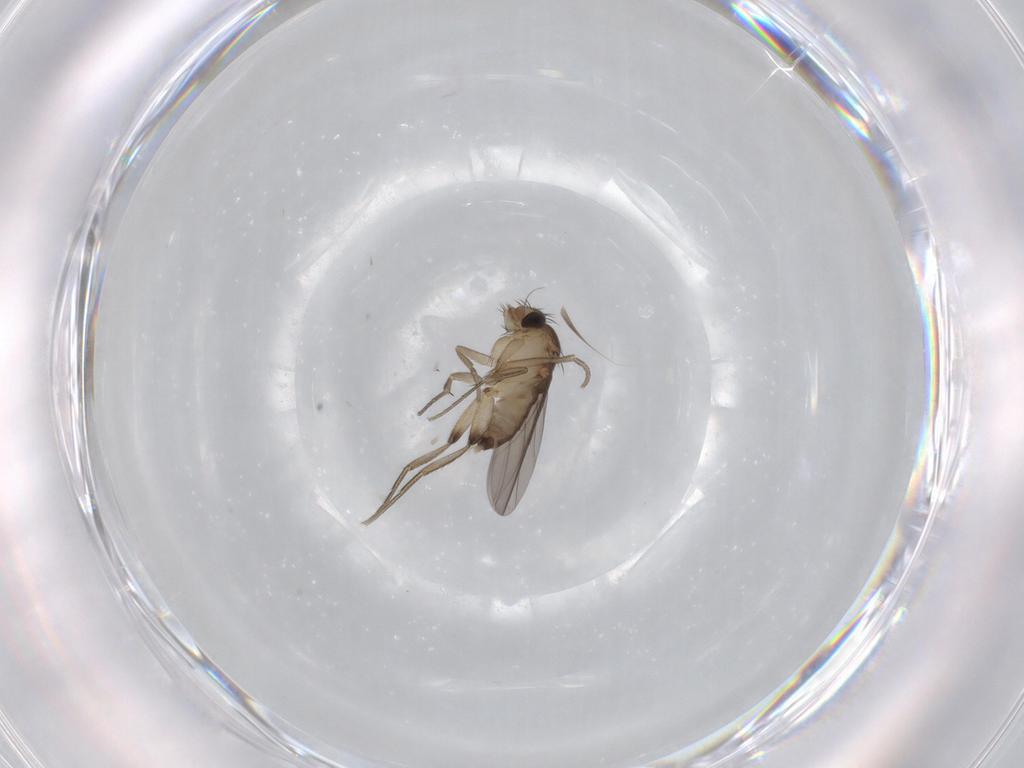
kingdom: Animalia
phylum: Arthropoda
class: Insecta
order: Diptera
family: Phoridae
